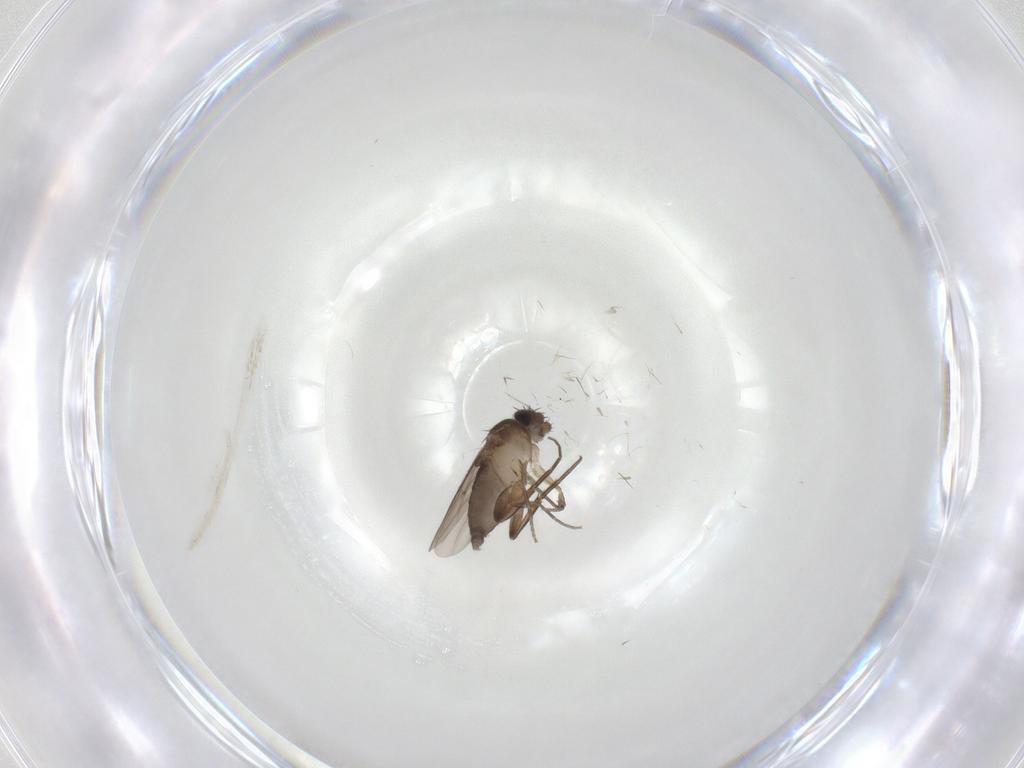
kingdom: Animalia
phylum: Arthropoda
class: Insecta
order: Diptera
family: Phoridae
